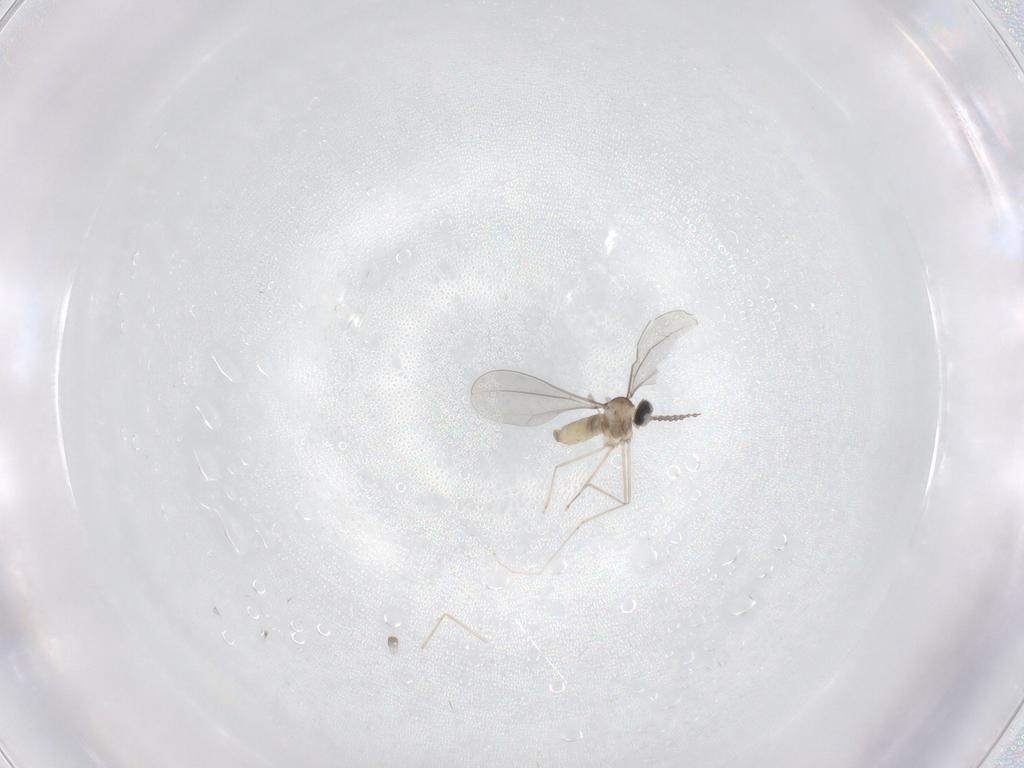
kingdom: Animalia
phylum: Arthropoda
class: Insecta
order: Diptera
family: Cecidomyiidae
